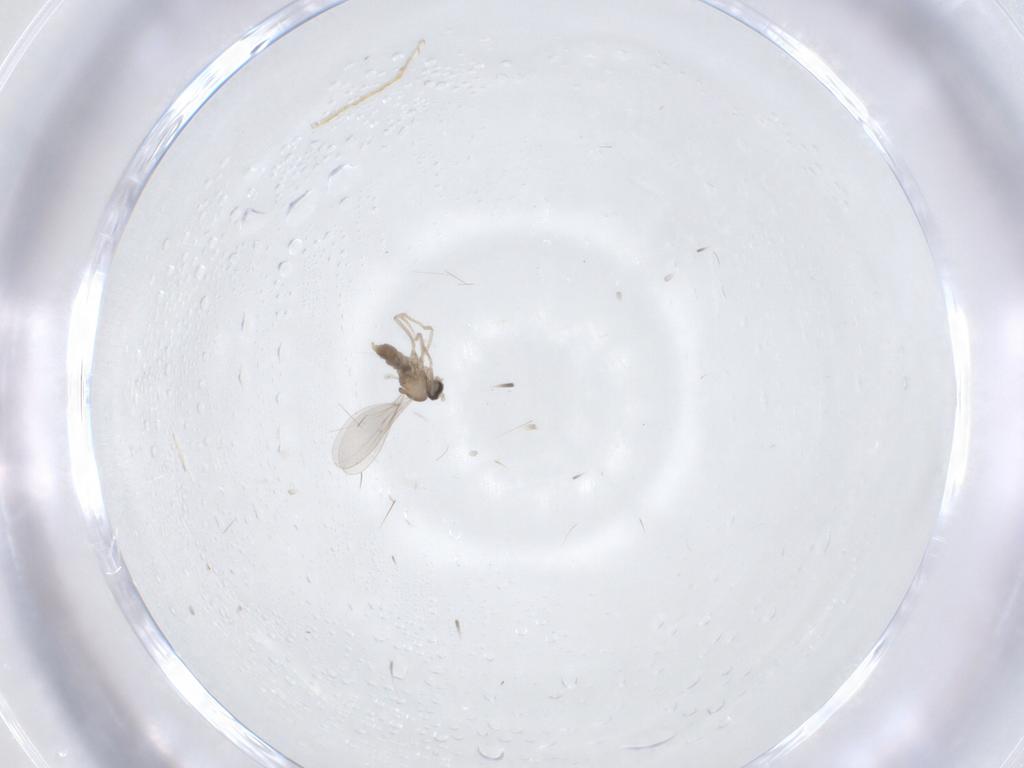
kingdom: Animalia
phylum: Arthropoda
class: Insecta
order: Diptera
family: Cecidomyiidae
